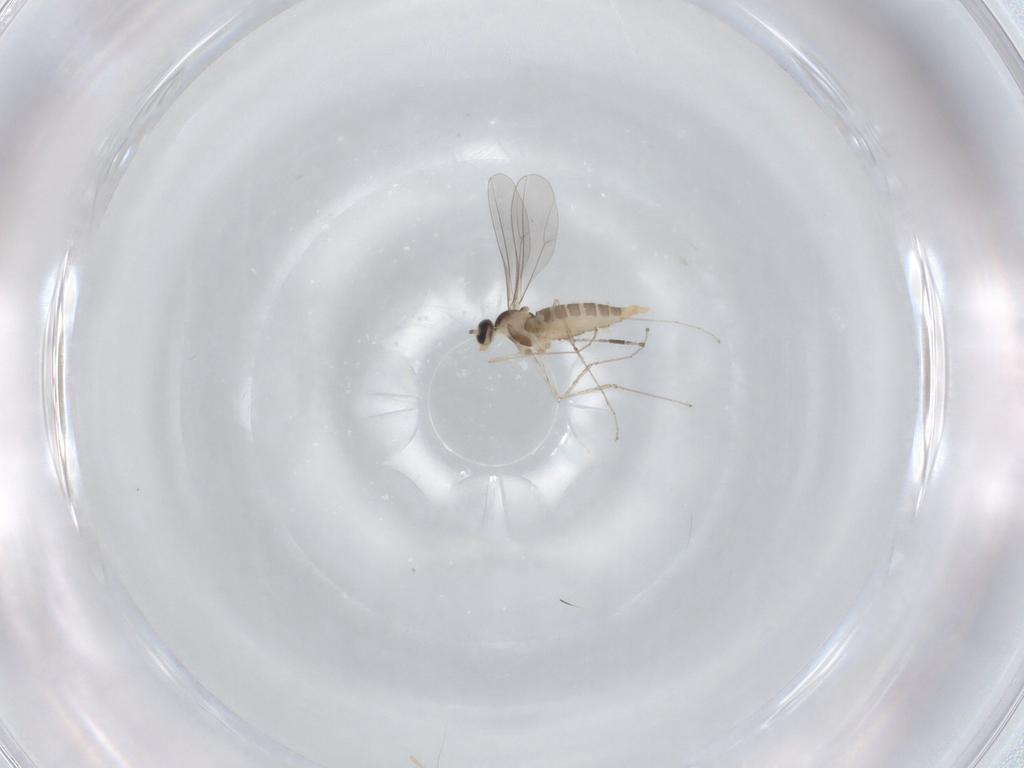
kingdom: Animalia
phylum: Arthropoda
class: Insecta
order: Diptera
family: Cecidomyiidae
